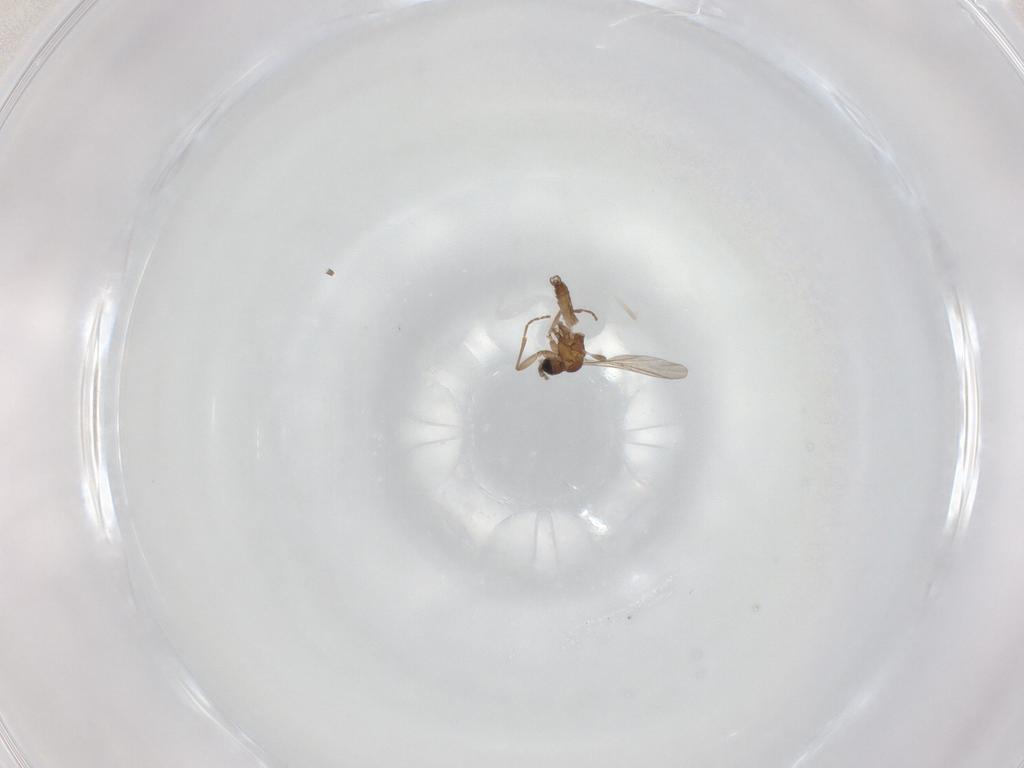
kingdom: Animalia
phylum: Arthropoda
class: Insecta
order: Diptera
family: Sciaridae
